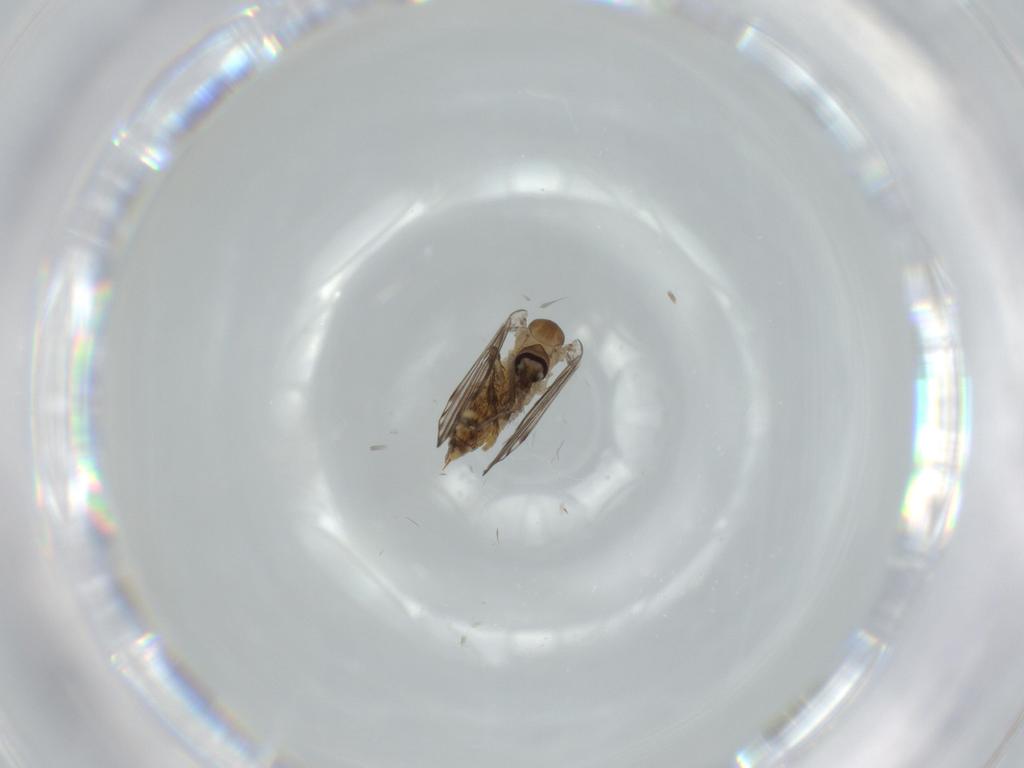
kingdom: Animalia
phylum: Arthropoda
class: Insecta
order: Diptera
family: Psychodidae
